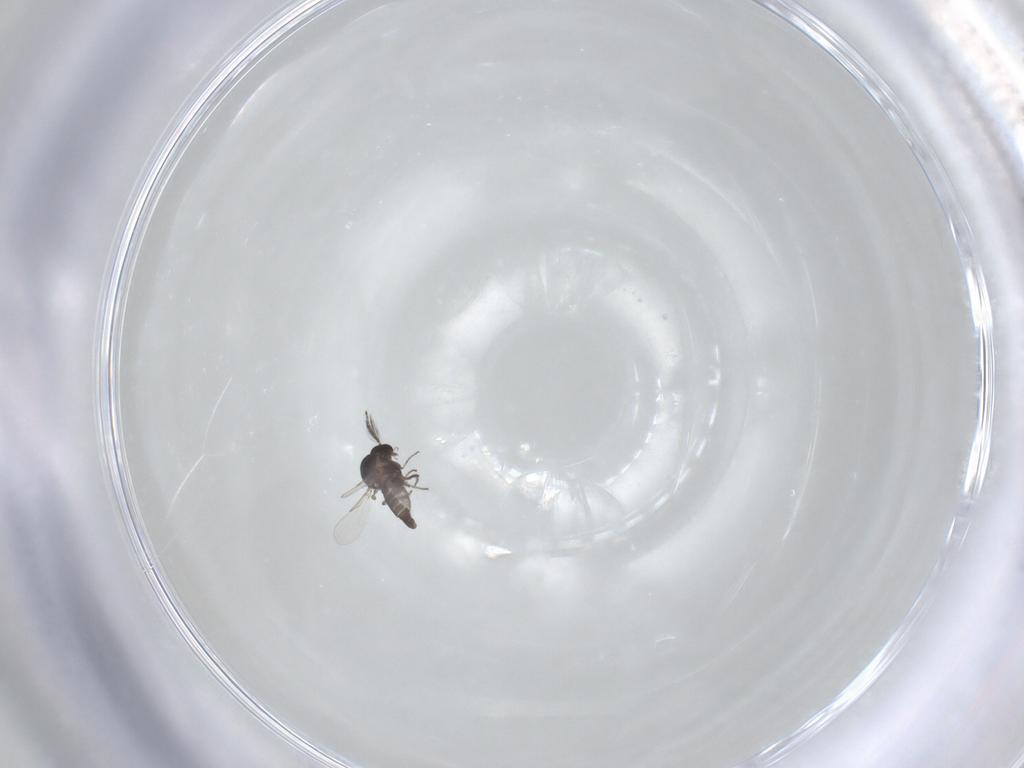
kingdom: Animalia
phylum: Arthropoda
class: Insecta
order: Diptera
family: Ceratopogonidae
